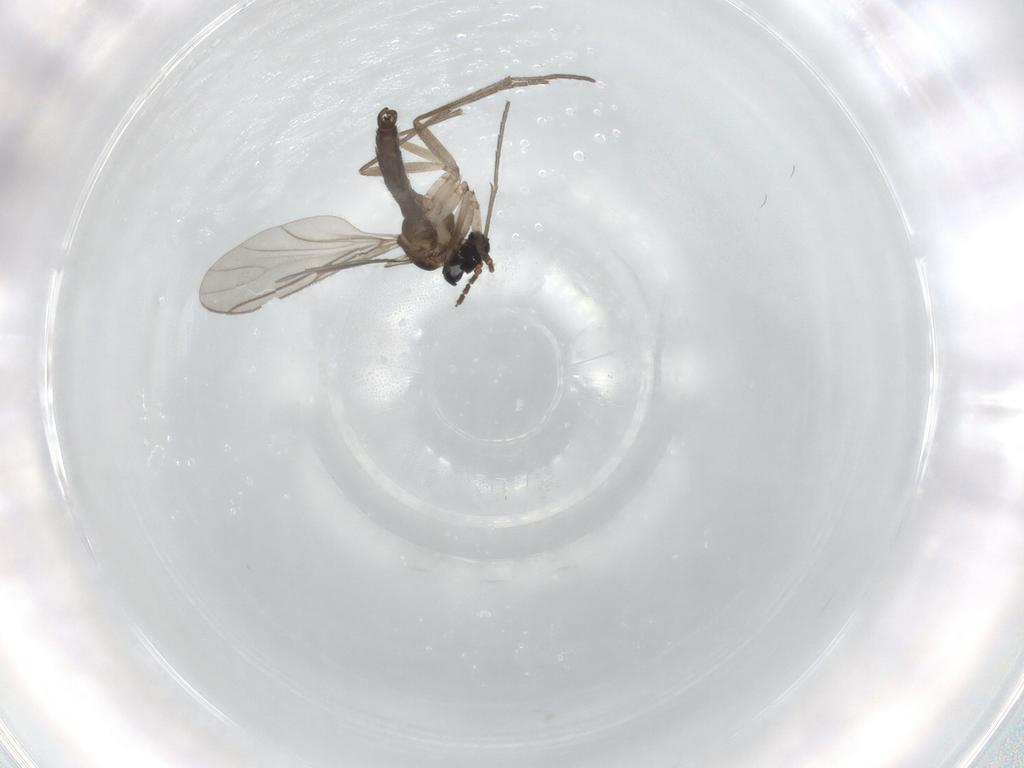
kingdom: Animalia
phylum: Arthropoda
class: Insecta
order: Diptera
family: Sciaridae
